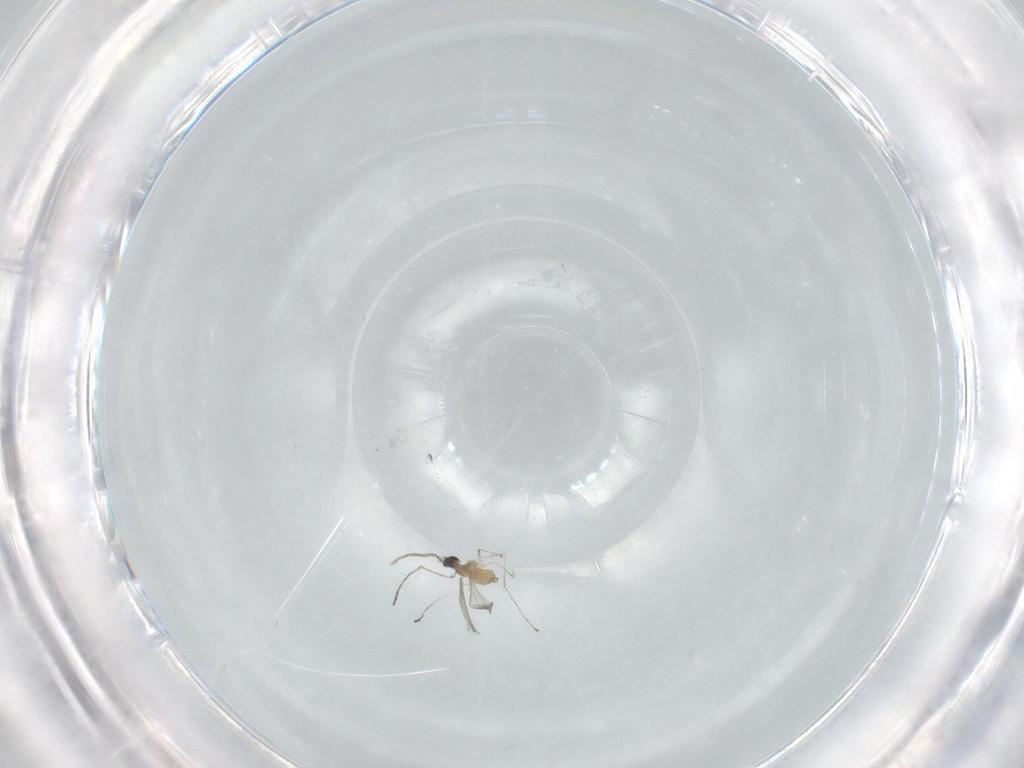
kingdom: Animalia
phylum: Arthropoda
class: Insecta
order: Diptera
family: Cecidomyiidae
